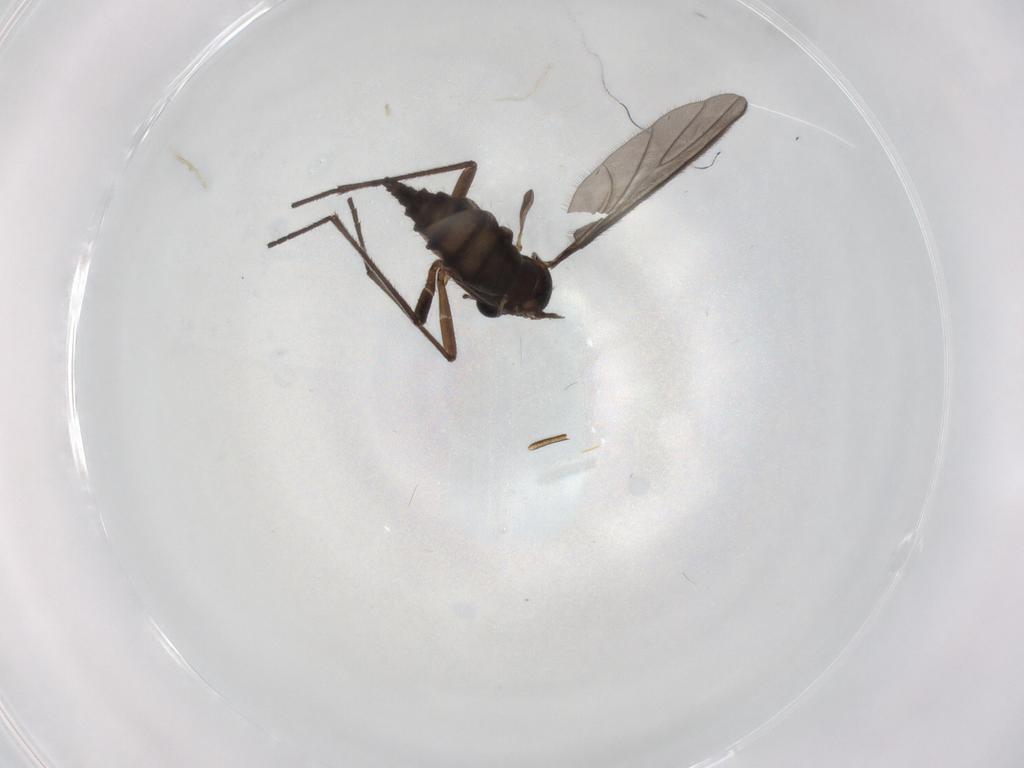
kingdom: Animalia
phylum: Arthropoda
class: Insecta
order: Diptera
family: Sciaridae
